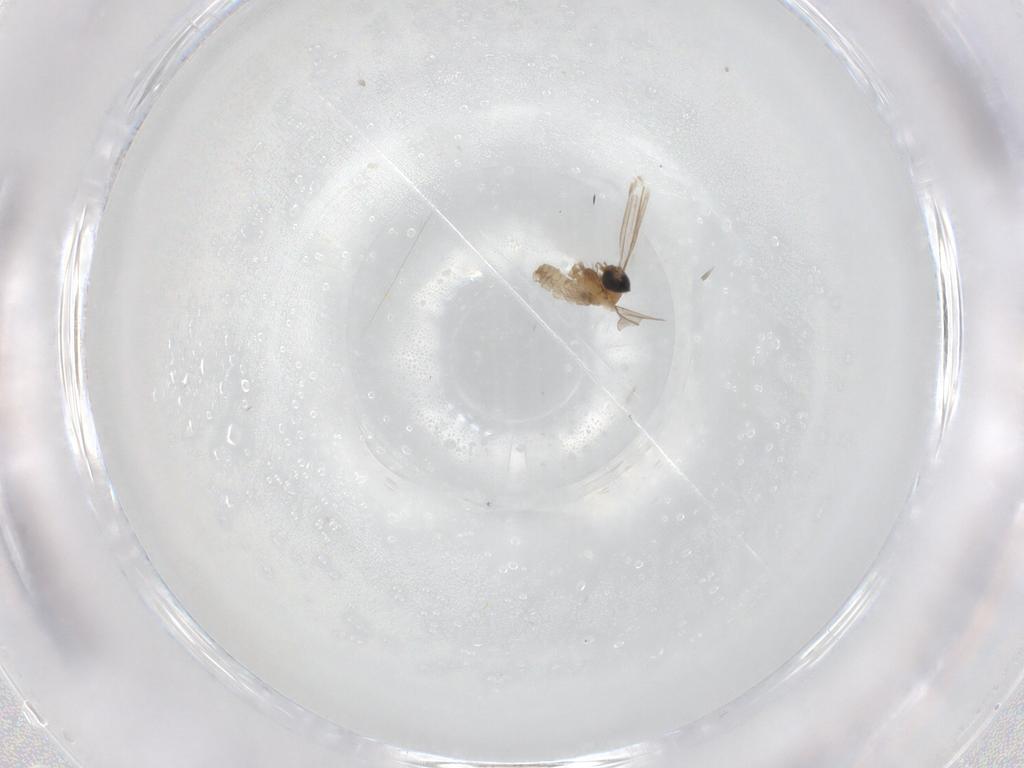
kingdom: Animalia
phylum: Arthropoda
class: Insecta
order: Diptera
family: Cecidomyiidae
